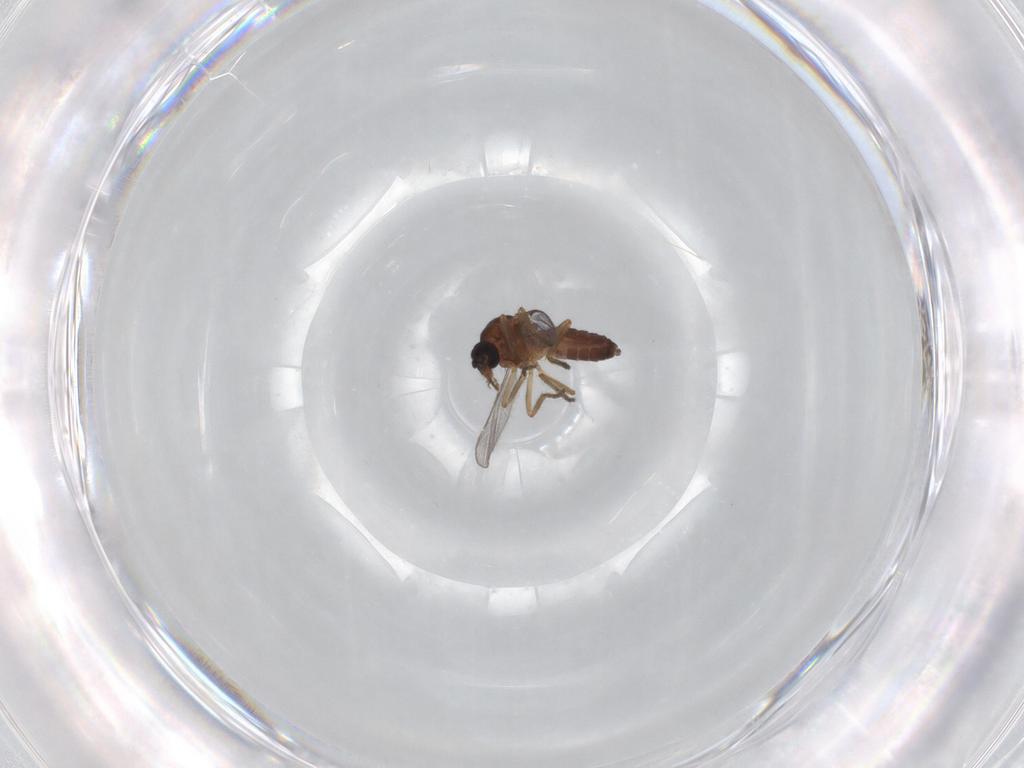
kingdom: Animalia
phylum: Arthropoda
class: Insecta
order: Diptera
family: Ceratopogonidae
